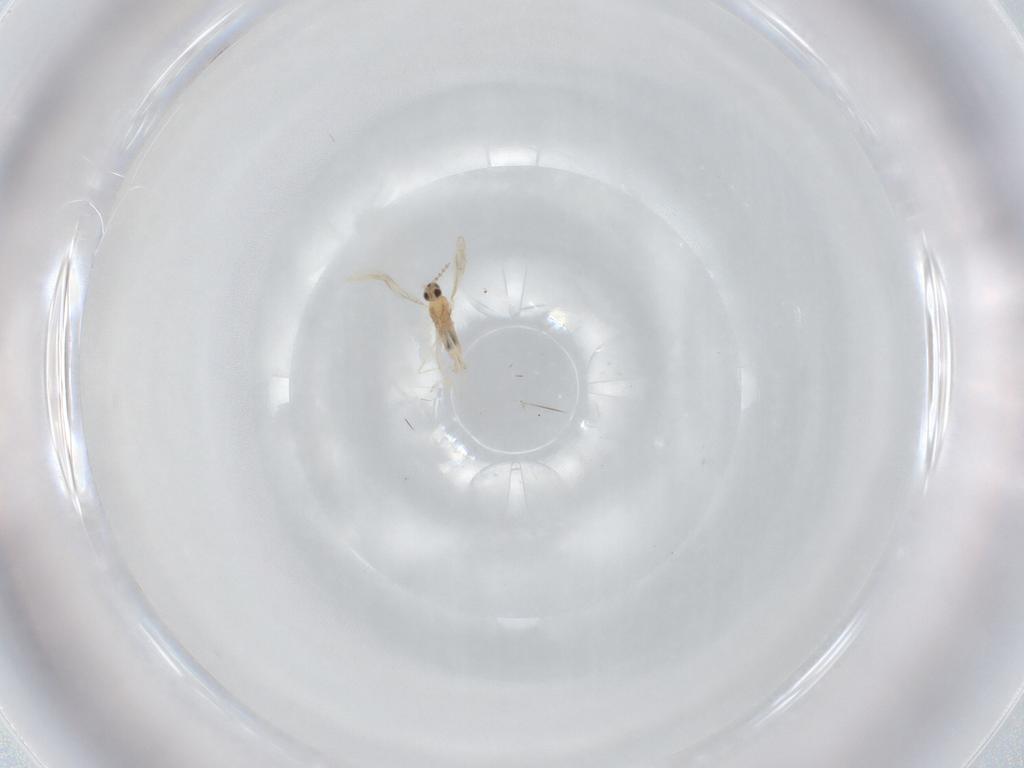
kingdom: Animalia
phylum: Arthropoda
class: Insecta
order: Diptera
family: Cecidomyiidae
